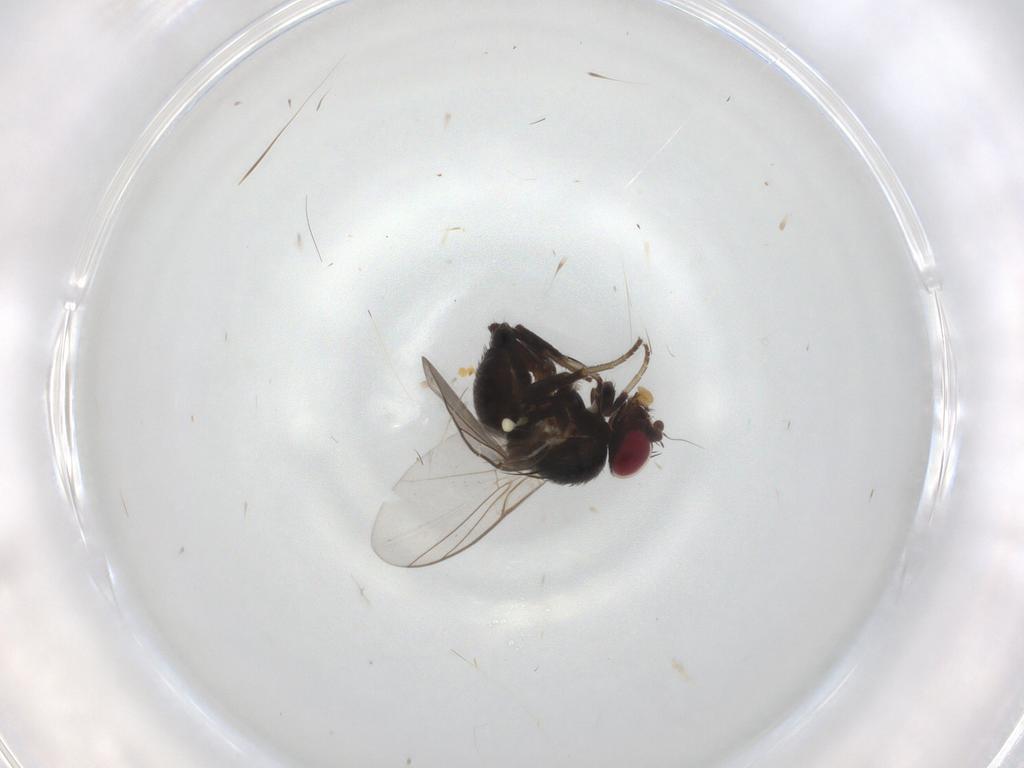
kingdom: Animalia
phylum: Arthropoda
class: Insecta
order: Diptera
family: Agromyzidae
